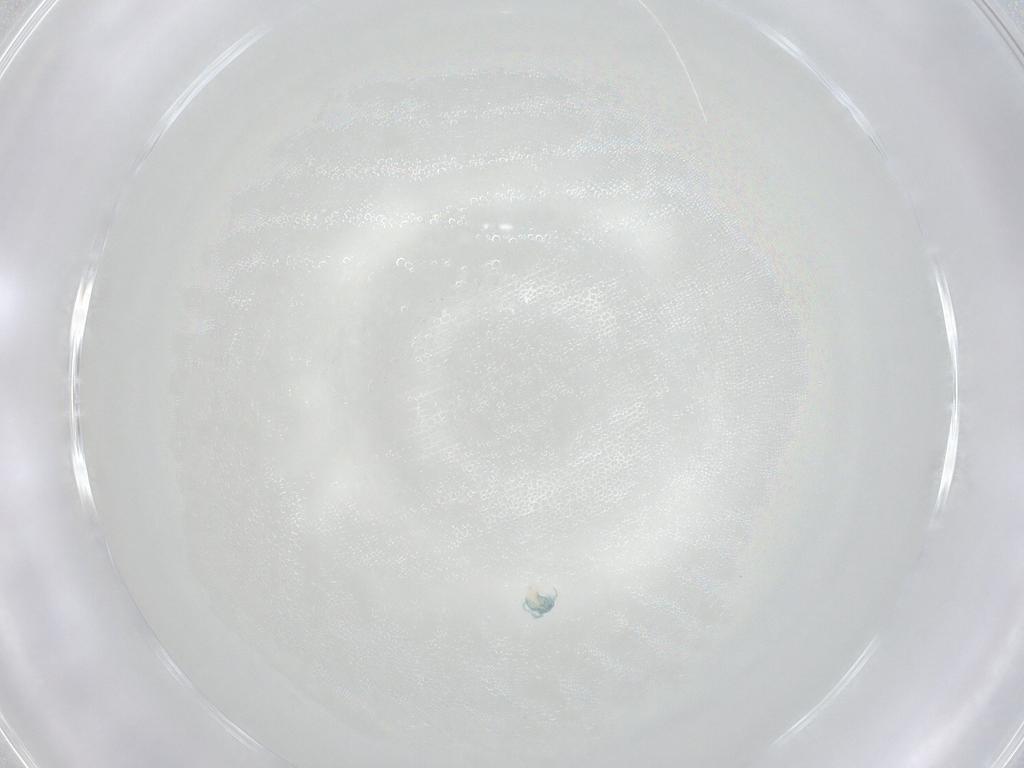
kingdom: Animalia
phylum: Arthropoda
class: Arachnida
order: Trombidiformes
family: Arrenuridae
